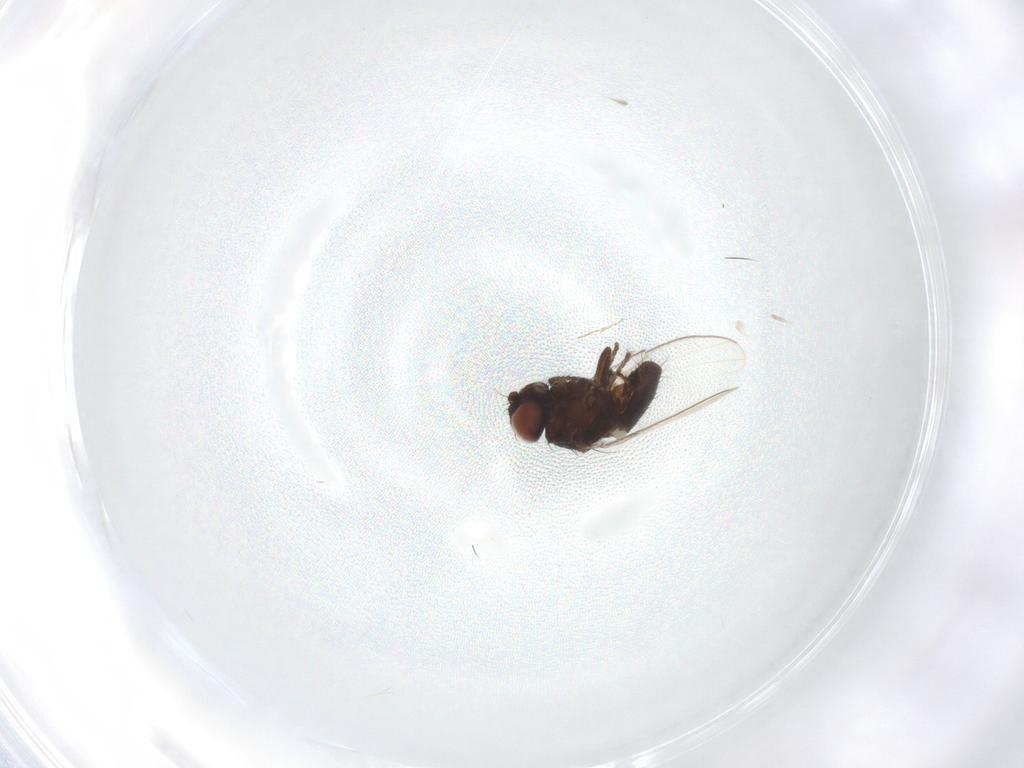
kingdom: Animalia
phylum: Arthropoda
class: Insecta
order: Diptera
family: Milichiidae
